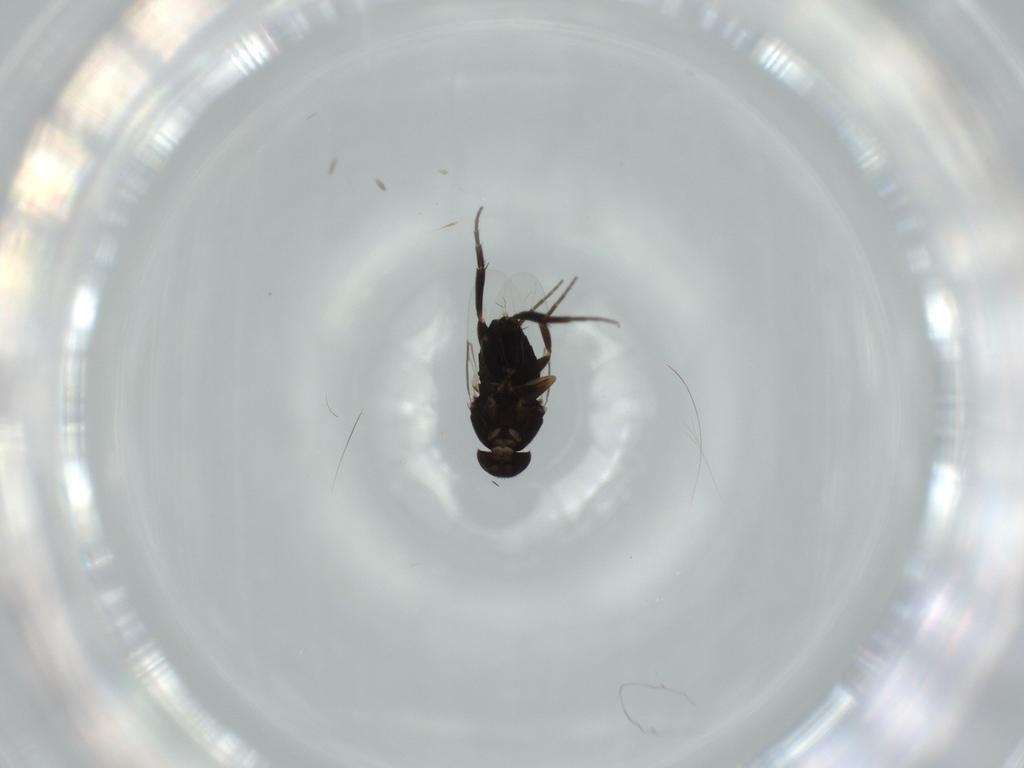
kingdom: Animalia
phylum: Arthropoda
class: Insecta
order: Diptera
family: Phoridae
